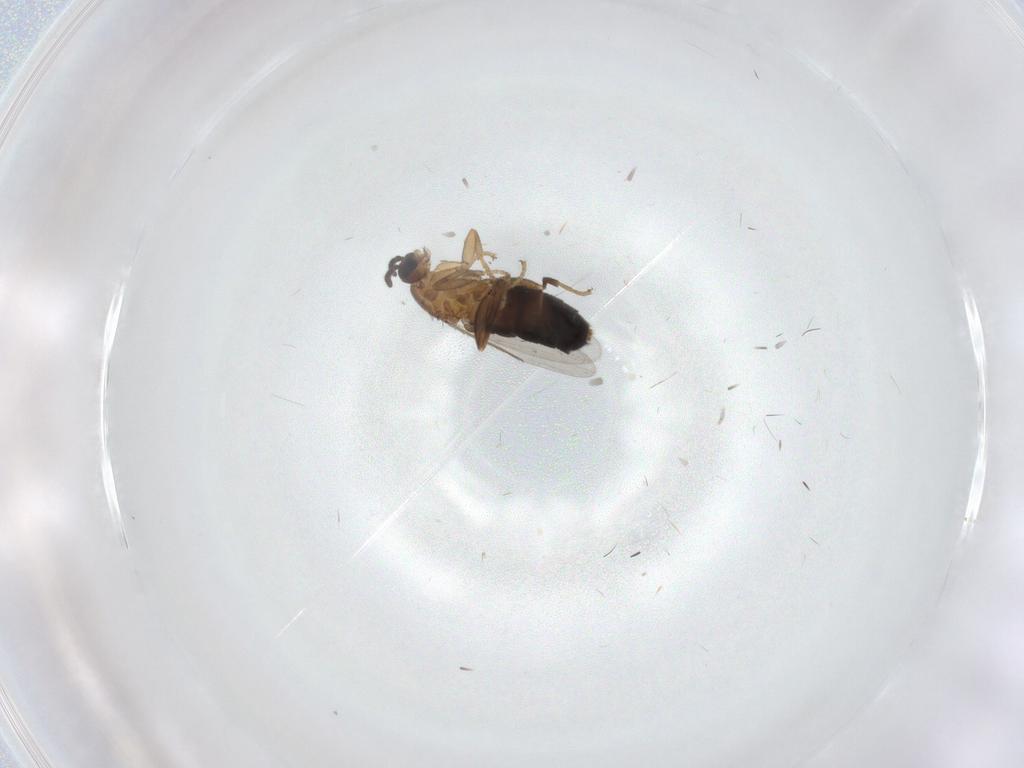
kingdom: Animalia
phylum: Arthropoda
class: Insecta
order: Diptera
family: Scatopsidae
